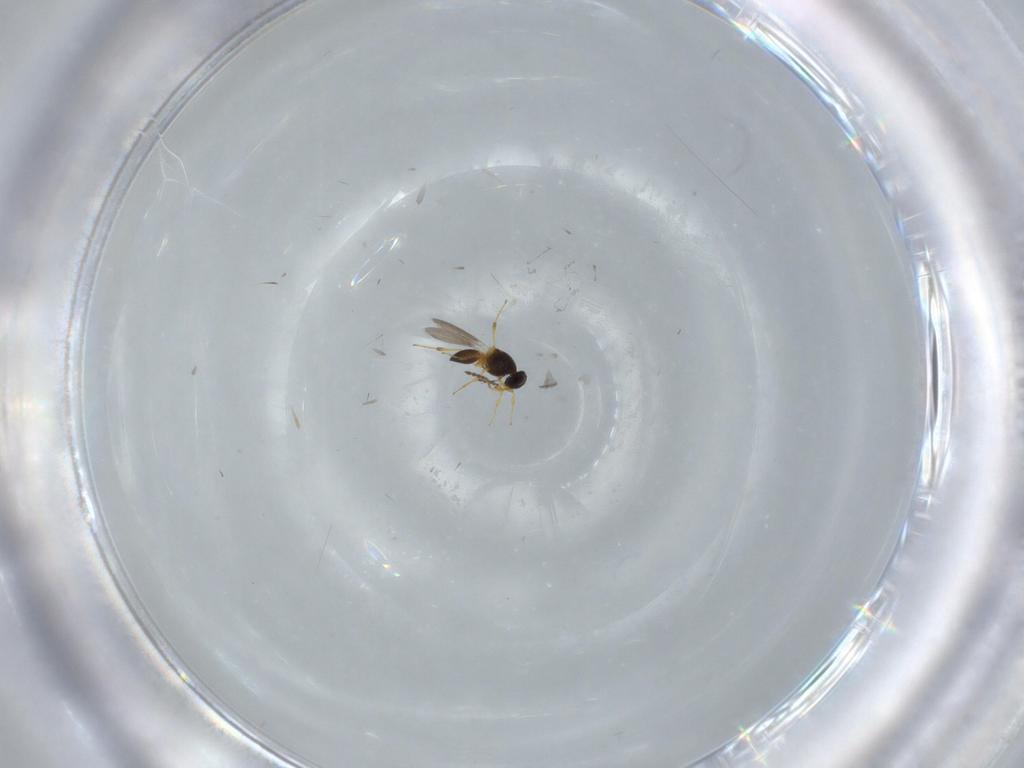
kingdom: Animalia
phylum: Arthropoda
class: Insecta
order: Hymenoptera
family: Platygastridae
